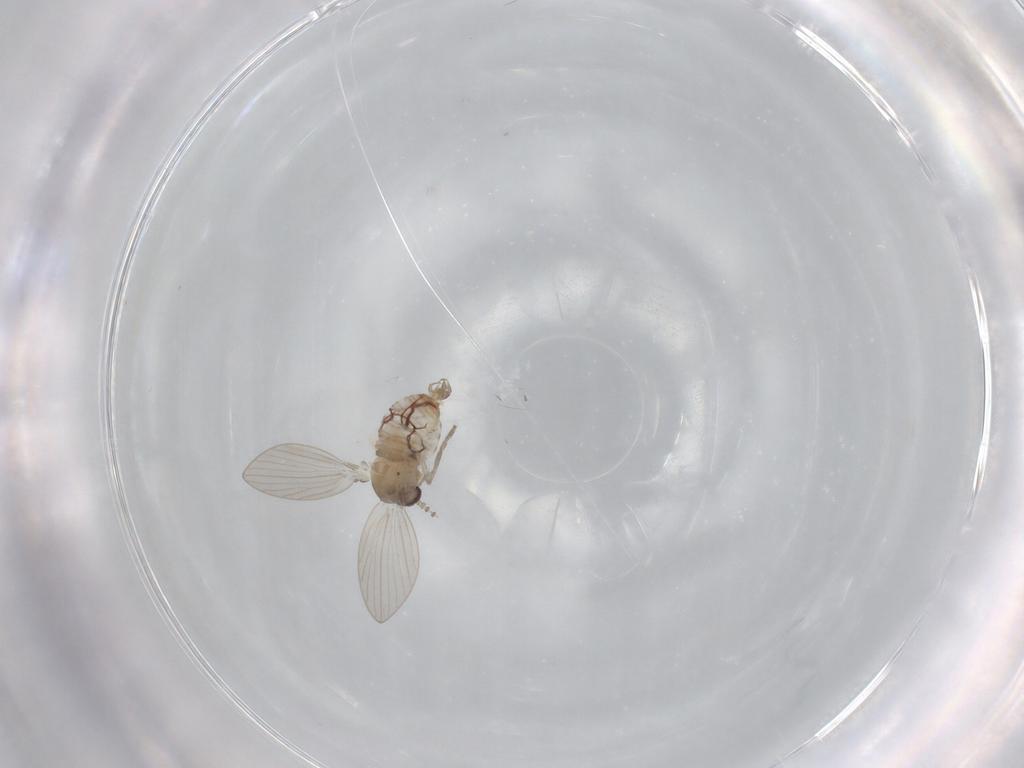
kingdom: Animalia
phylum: Arthropoda
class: Insecta
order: Diptera
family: Psychodidae
